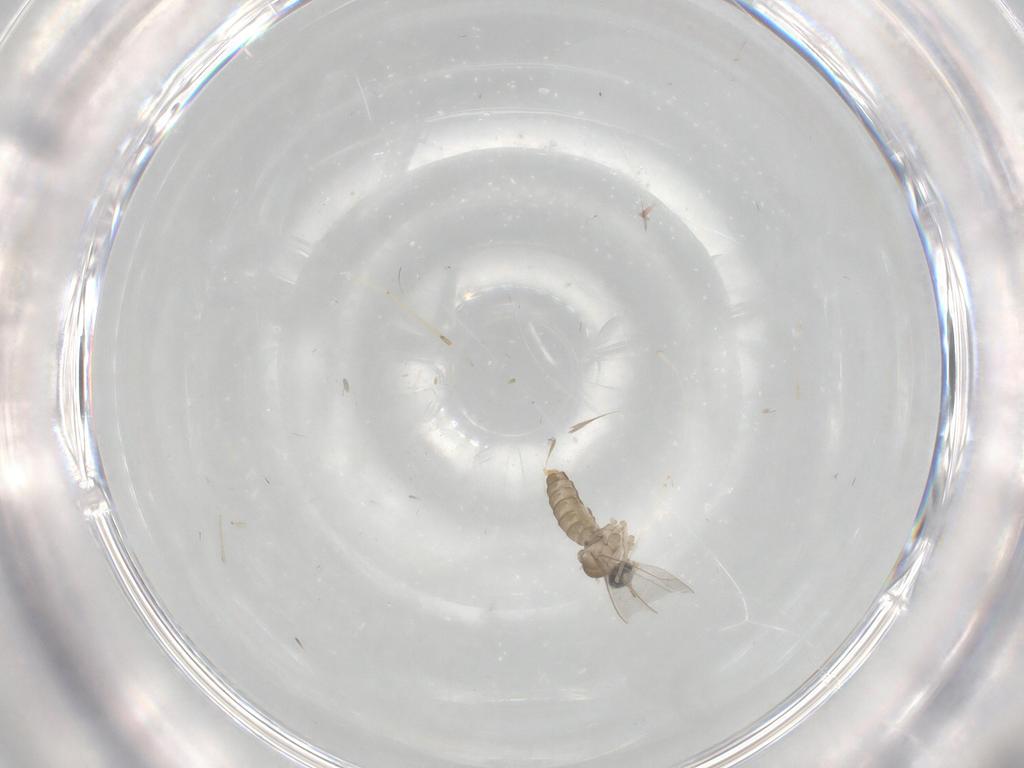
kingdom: Animalia
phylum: Arthropoda
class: Insecta
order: Diptera
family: Cecidomyiidae
